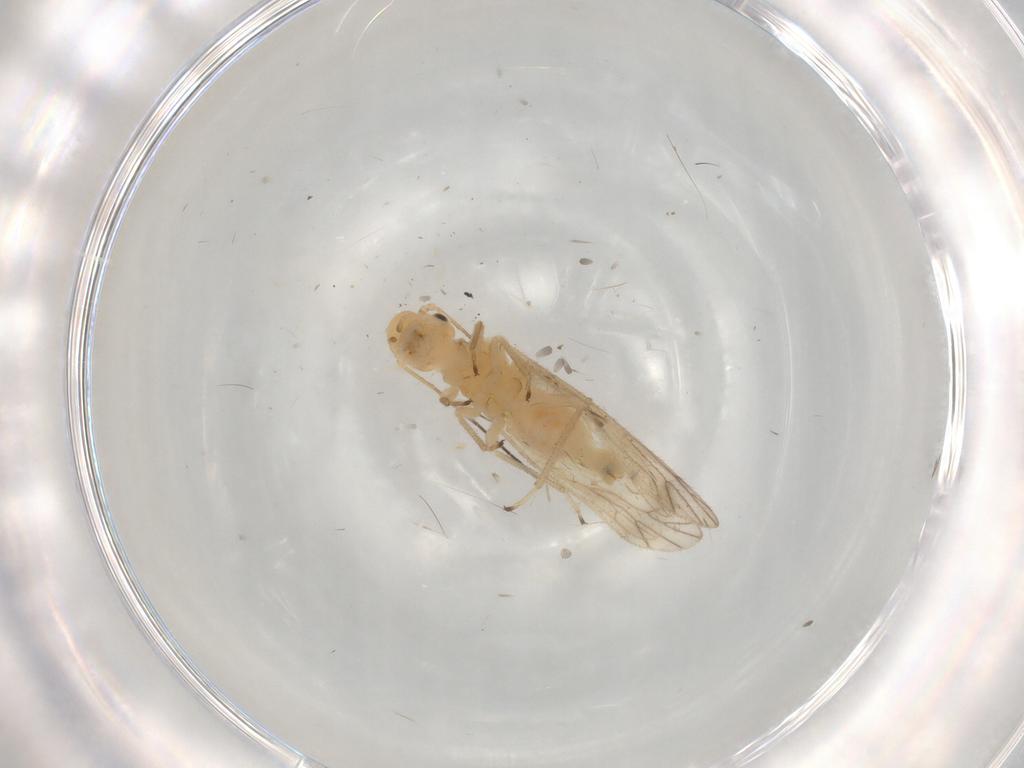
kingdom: Animalia
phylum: Arthropoda
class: Insecta
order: Psocodea
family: Caeciliusidae
